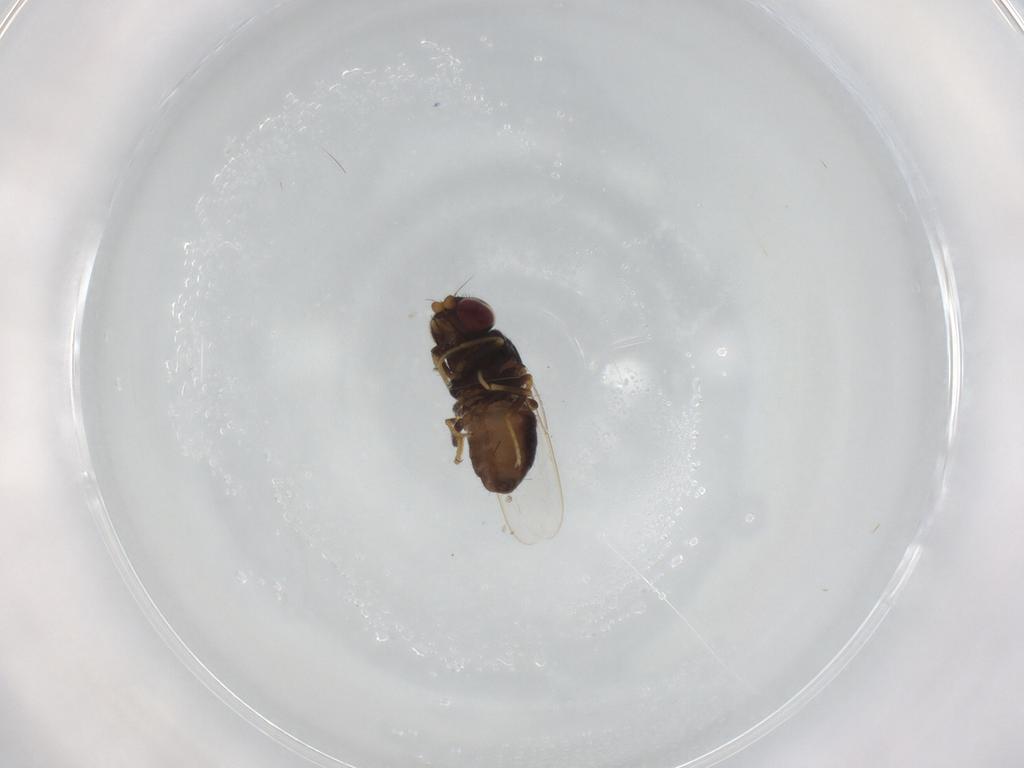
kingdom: Animalia
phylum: Arthropoda
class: Insecta
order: Diptera
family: Chloropidae
